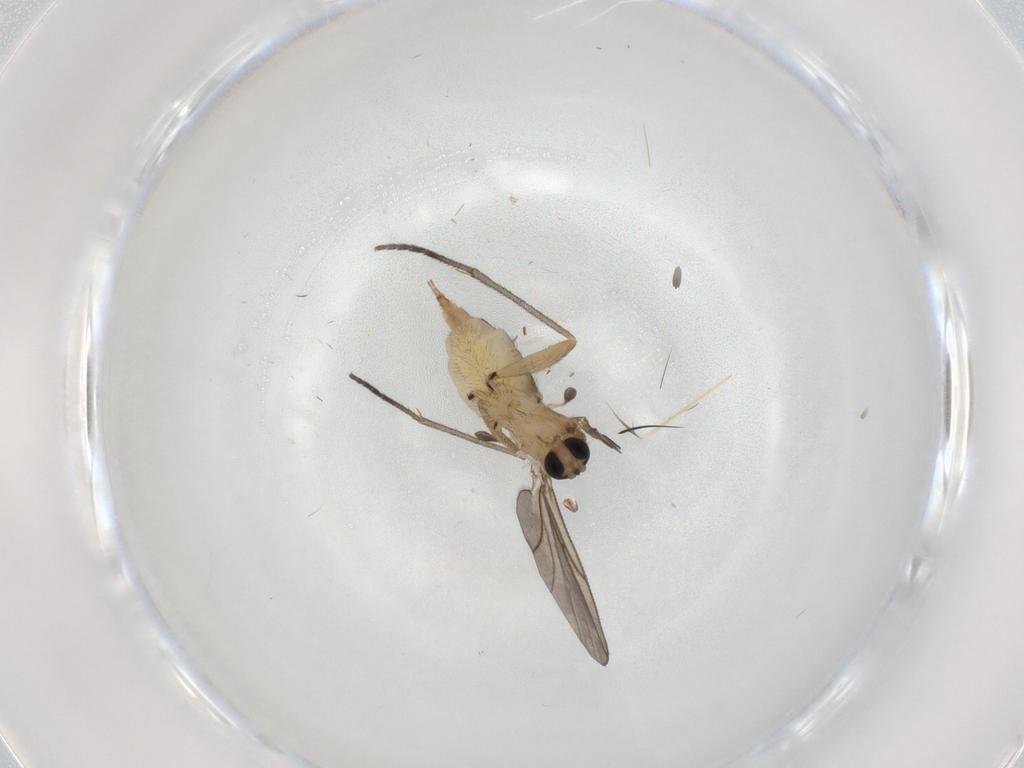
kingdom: Animalia
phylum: Arthropoda
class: Insecta
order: Diptera
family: Sciaridae
